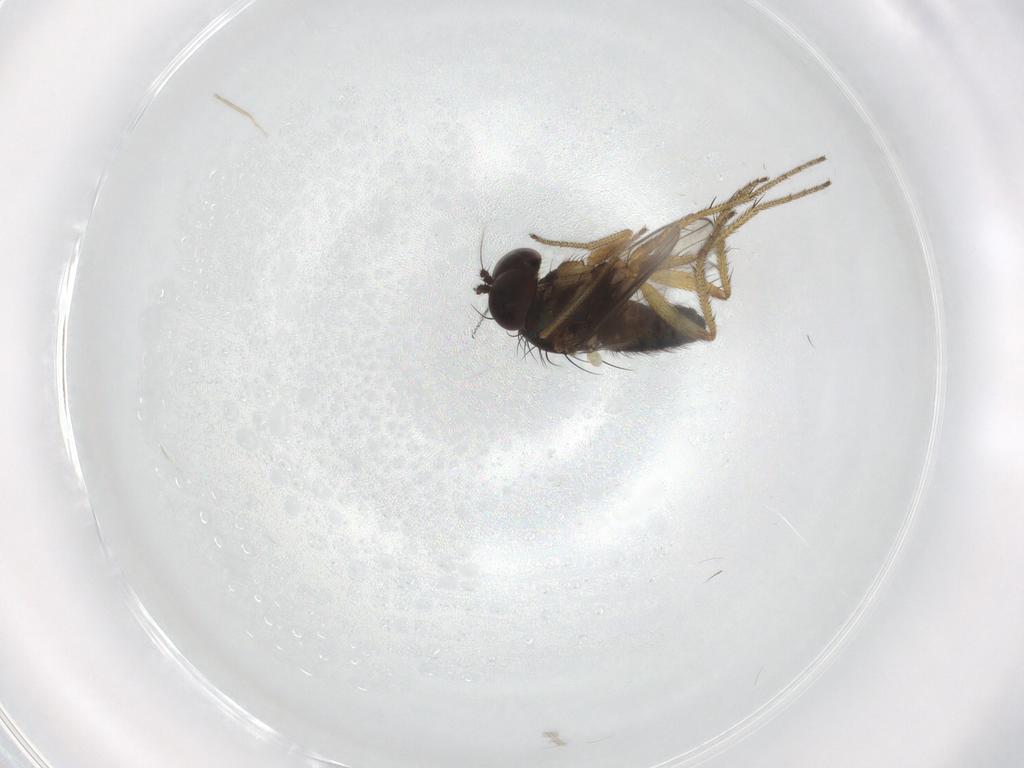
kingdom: Animalia
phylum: Arthropoda
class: Insecta
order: Diptera
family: Dolichopodidae
